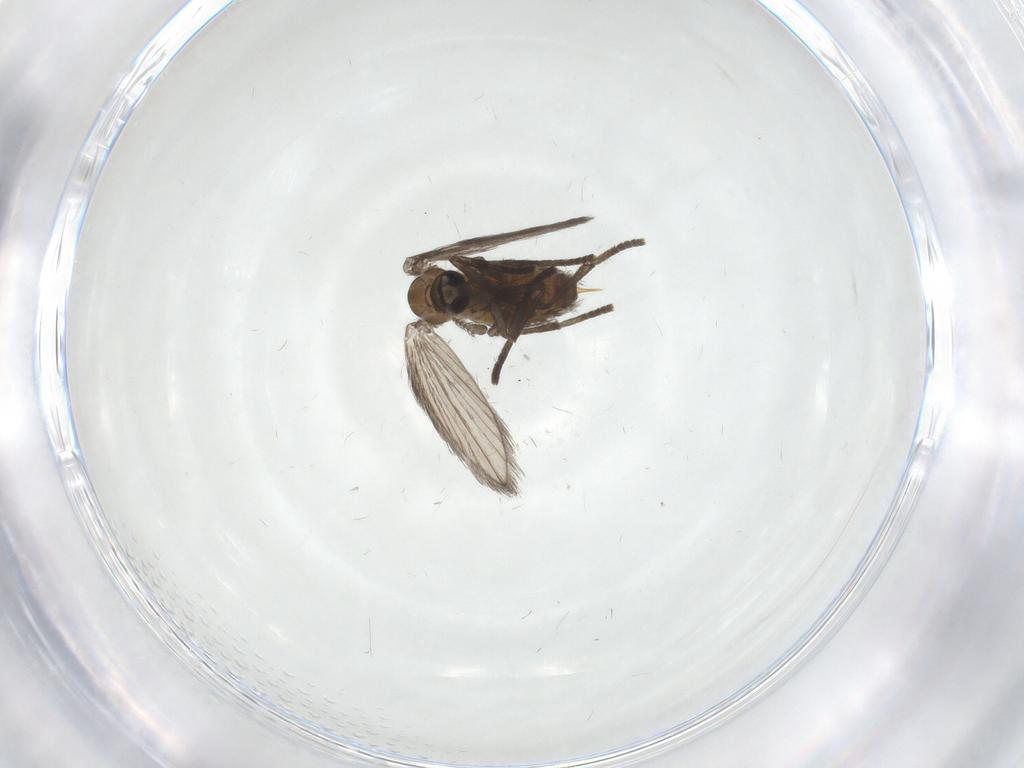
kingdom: Animalia
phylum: Arthropoda
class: Insecta
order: Diptera
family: Psychodidae
